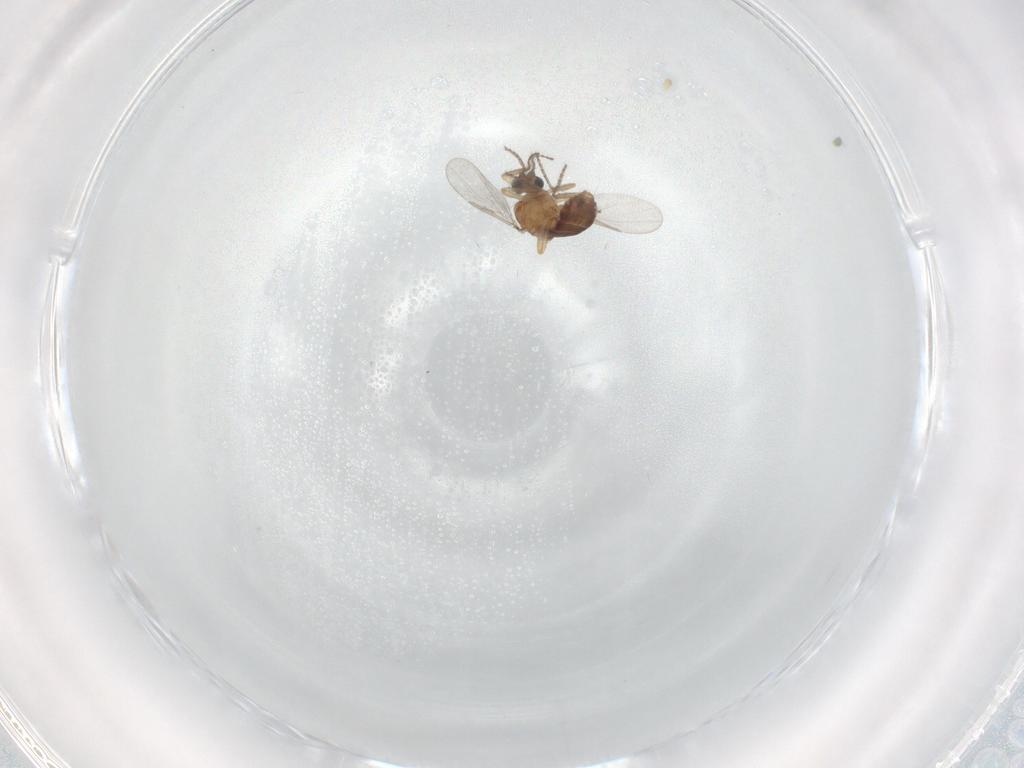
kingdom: Animalia
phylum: Arthropoda
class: Insecta
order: Diptera
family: Ceratopogonidae
